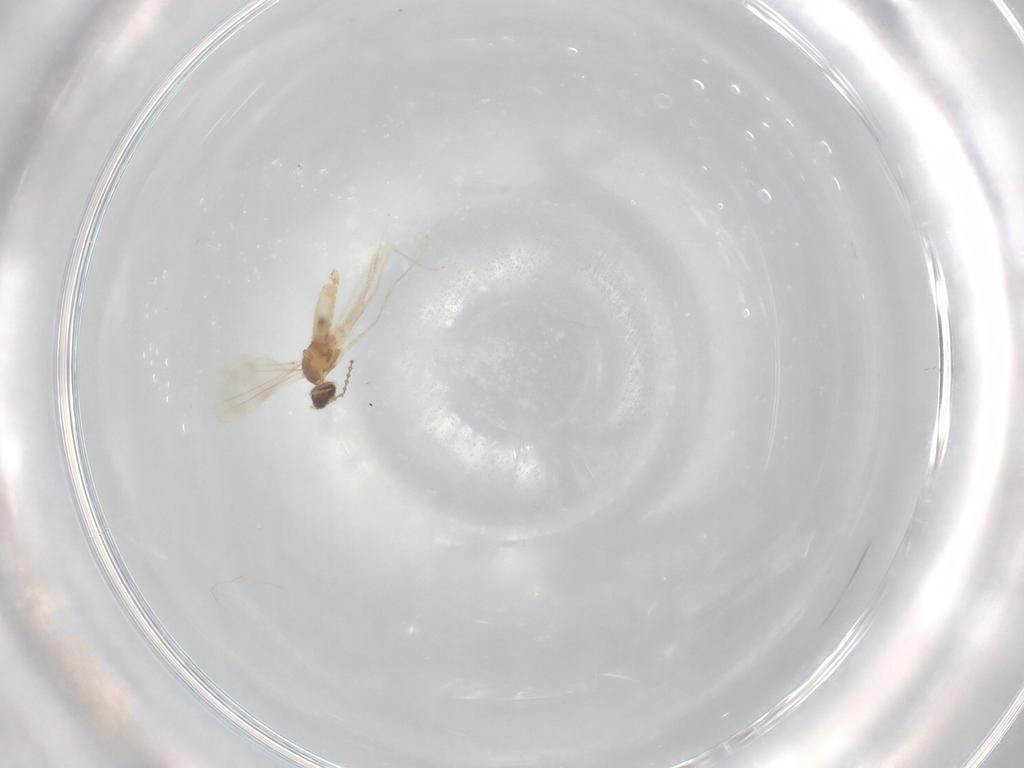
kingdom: Animalia
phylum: Arthropoda
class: Insecta
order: Diptera
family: Cecidomyiidae
